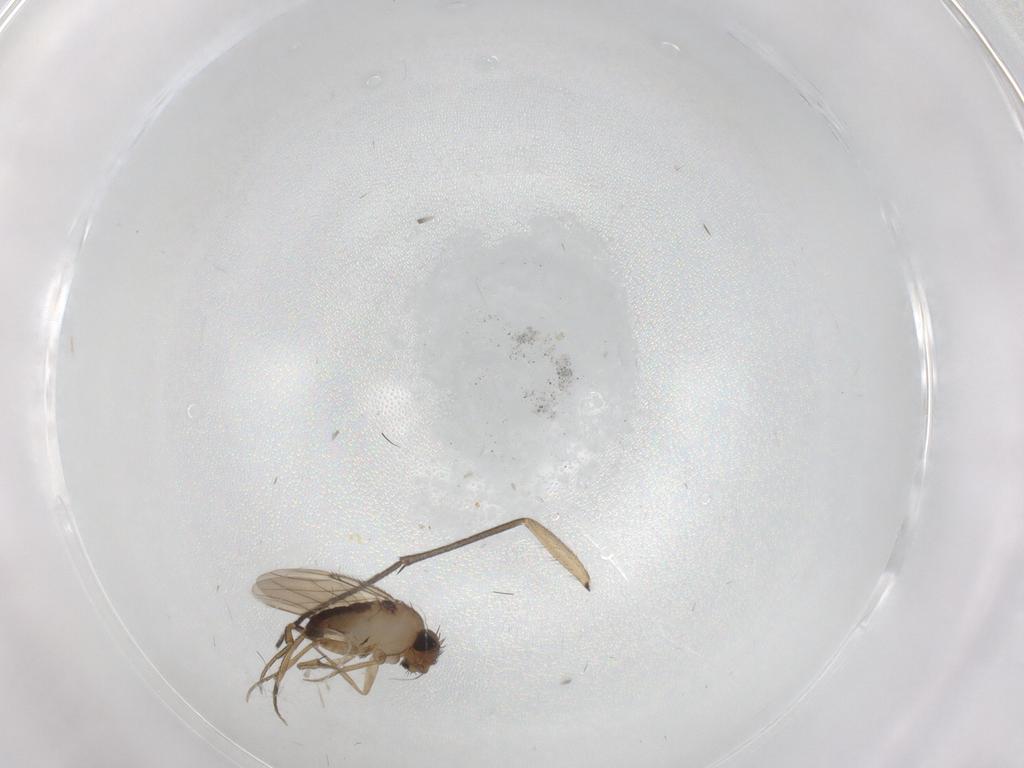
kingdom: Animalia
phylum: Arthropoda
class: Insecta
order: Diptera
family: Phoridae
